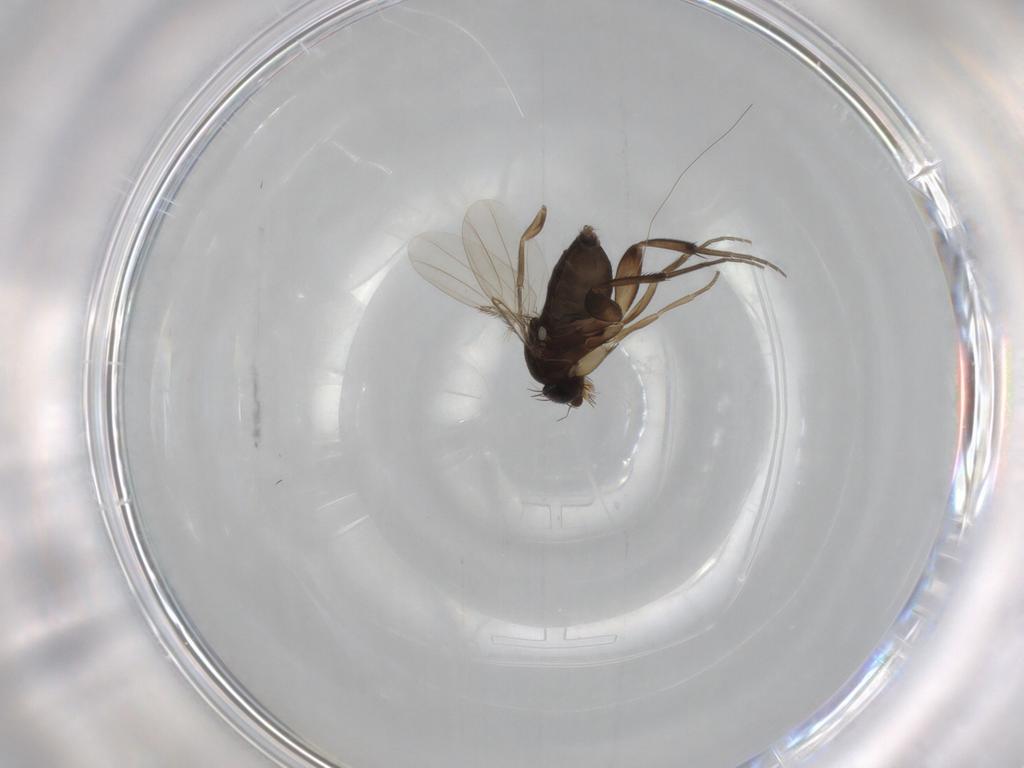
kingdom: Animalia
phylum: Arthropoda
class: Insecta
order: Diptera
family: Phoridae
